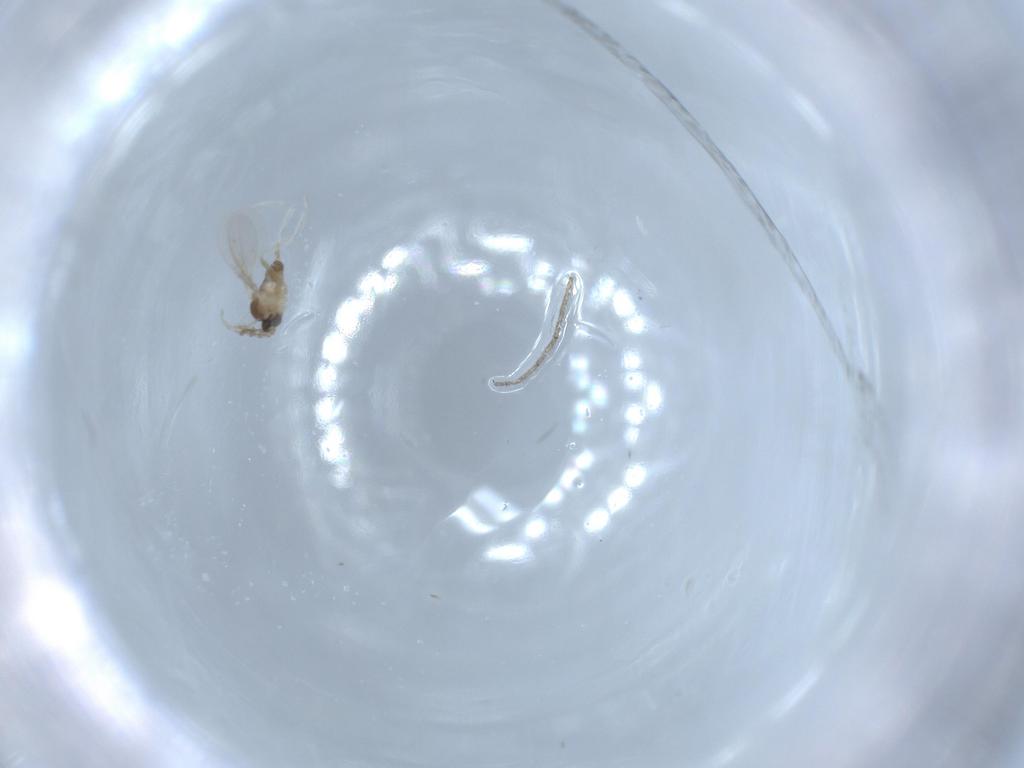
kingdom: Animalia
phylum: Arthropoda
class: Insecta
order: Diptera
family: Cecidomyiidae
